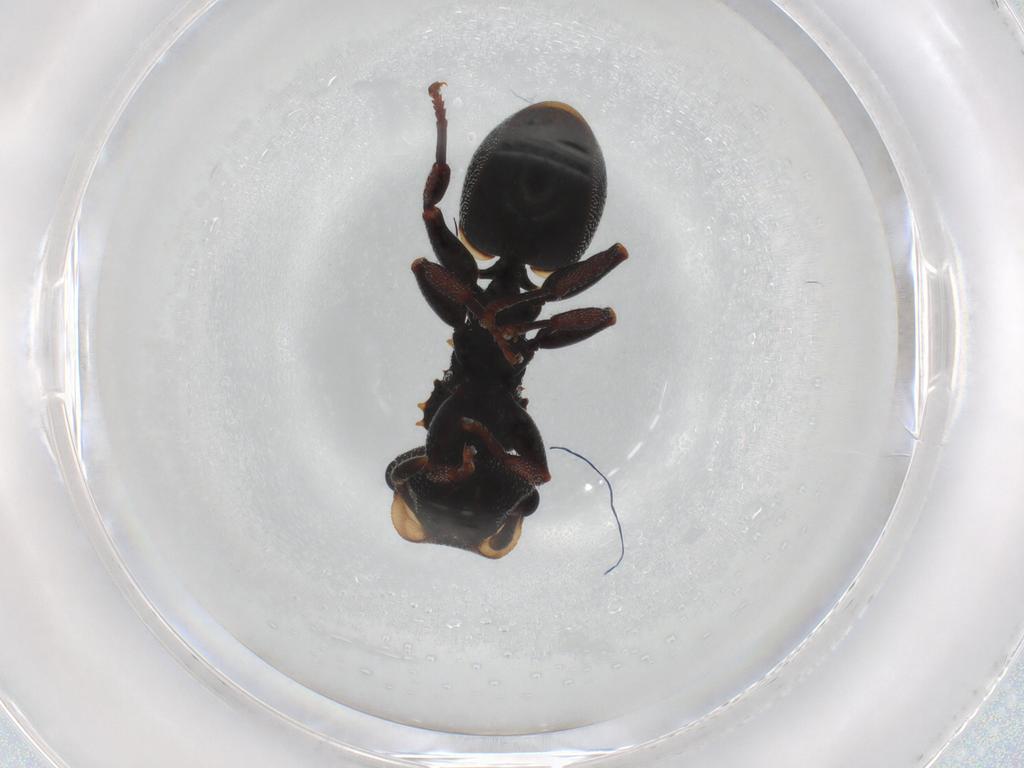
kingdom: Animalia
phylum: Arthropoda
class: Insecta
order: Hymenoptera
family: Formicidae
